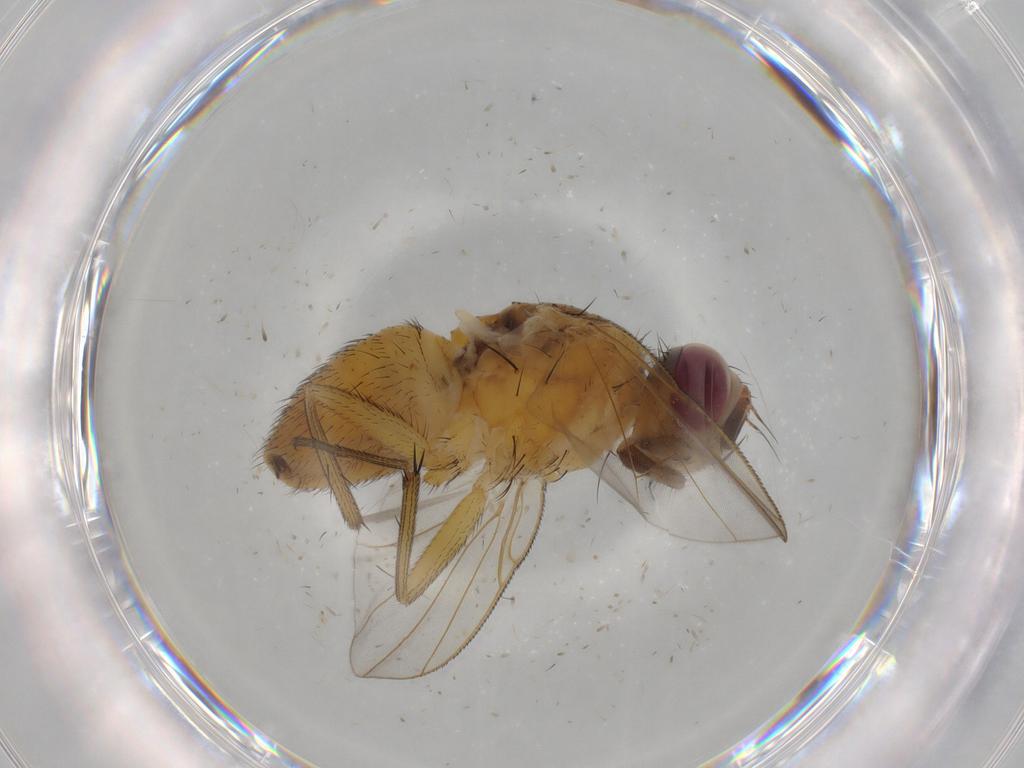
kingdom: Animalia
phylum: Arthropoda
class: Insecta
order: Diptera
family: Muscidae
